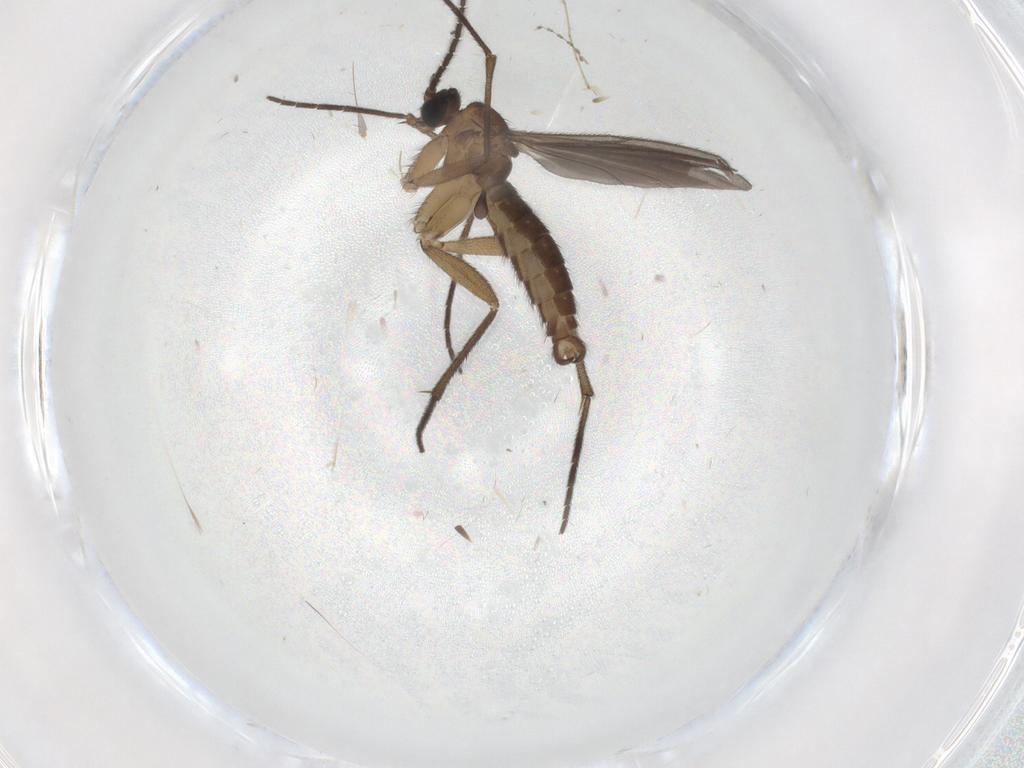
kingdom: Animalia
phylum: Arthropoda
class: Insecta
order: Diptera
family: Cecidomyiidae
